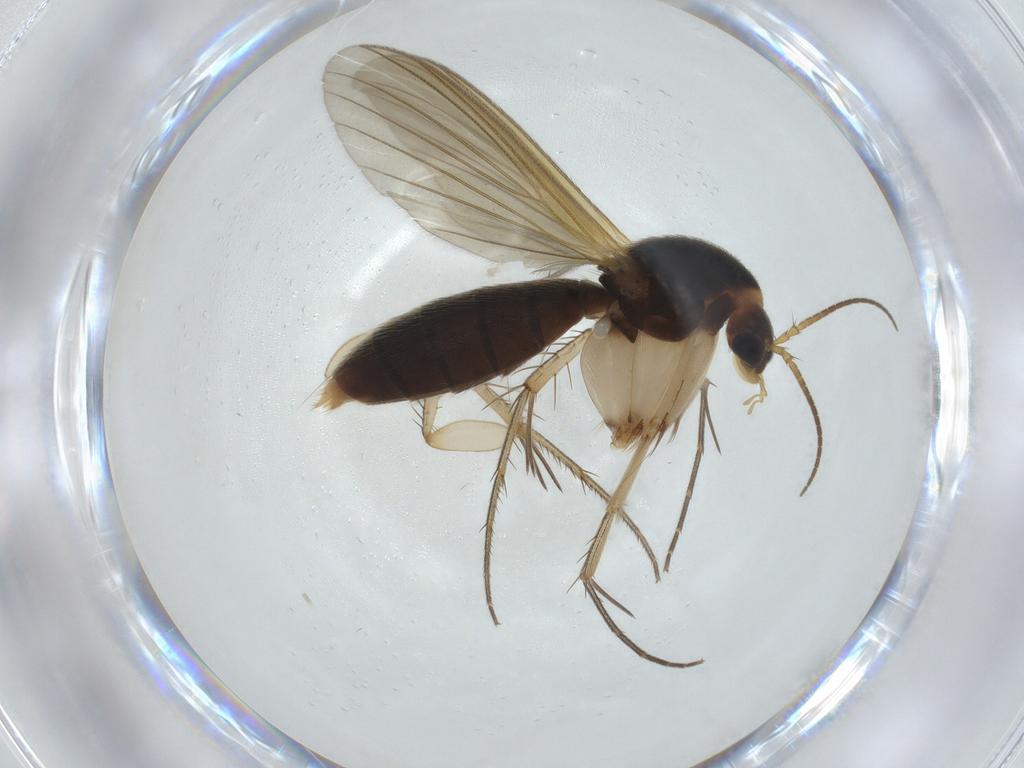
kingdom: Animalia
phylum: Arthropoda
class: Insecta
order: Diptera
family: Mycetophilidae
